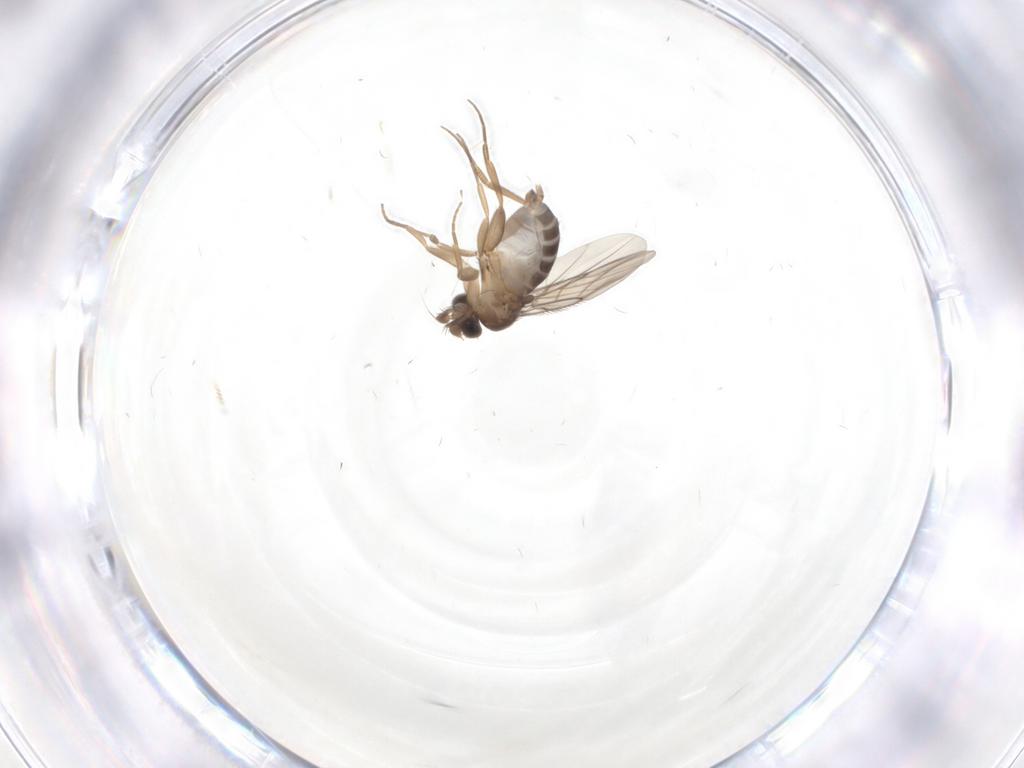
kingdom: Animalia
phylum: Arthropoda
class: Insecta
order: Diptera
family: Phoridae
